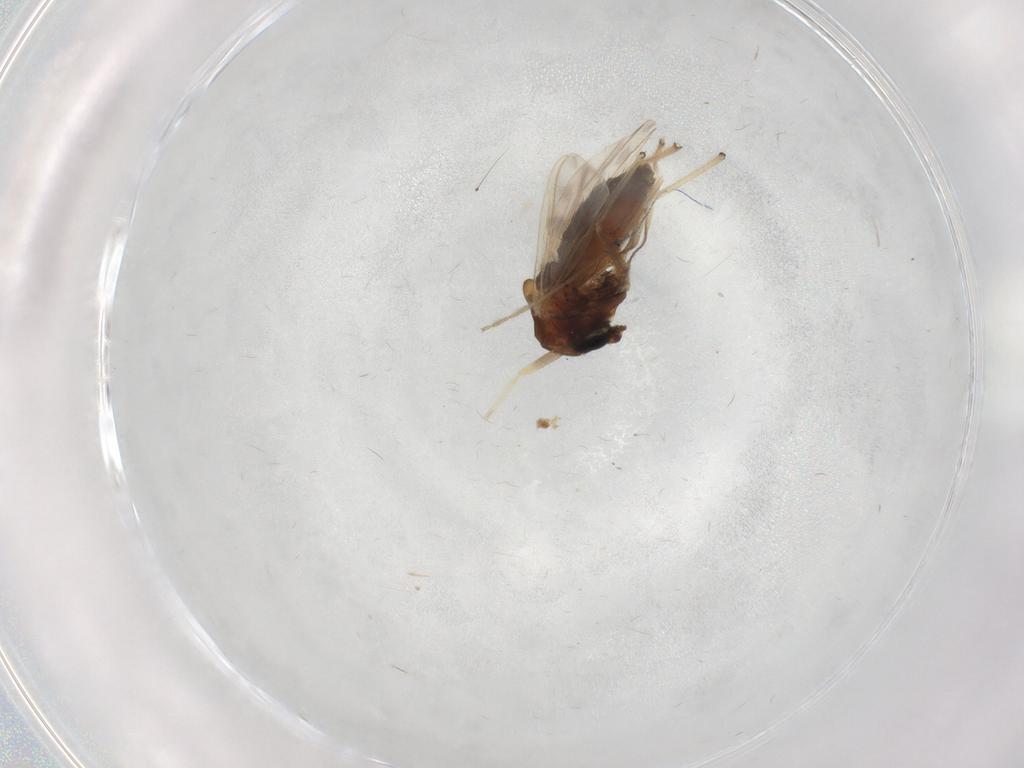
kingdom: Animalia
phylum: Arthropoda
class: Insecta
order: Diptera
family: Chironomidae
